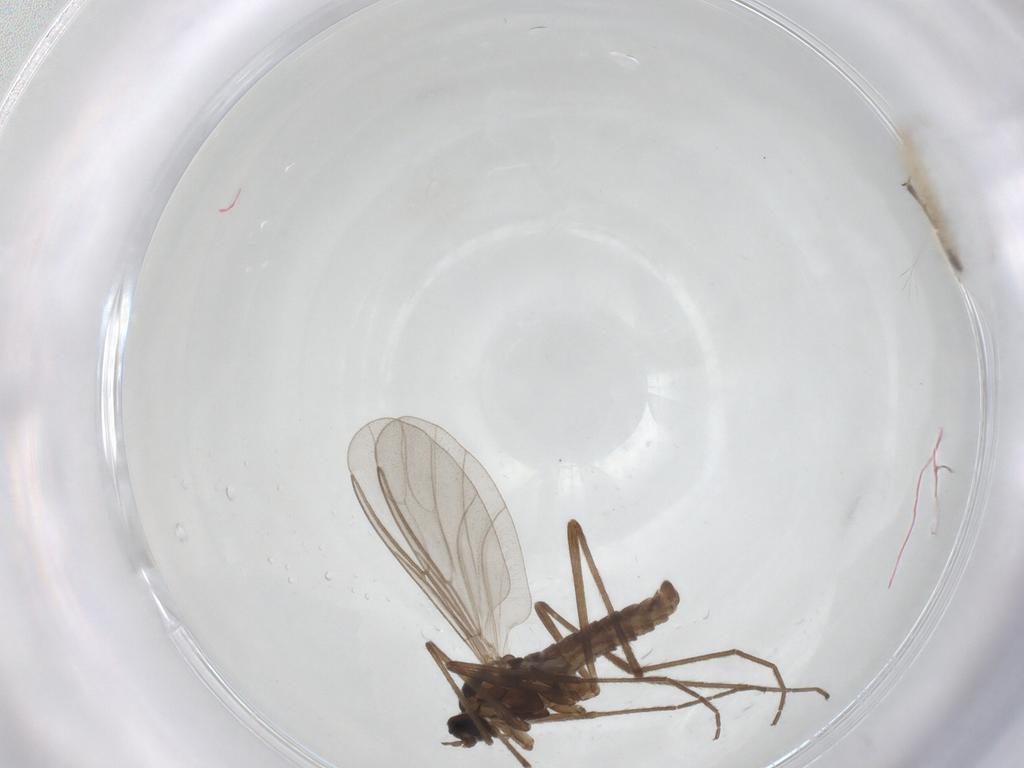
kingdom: Animalia
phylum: Arthropoda
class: Insecta
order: Diptera
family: Cecidomyiidae
